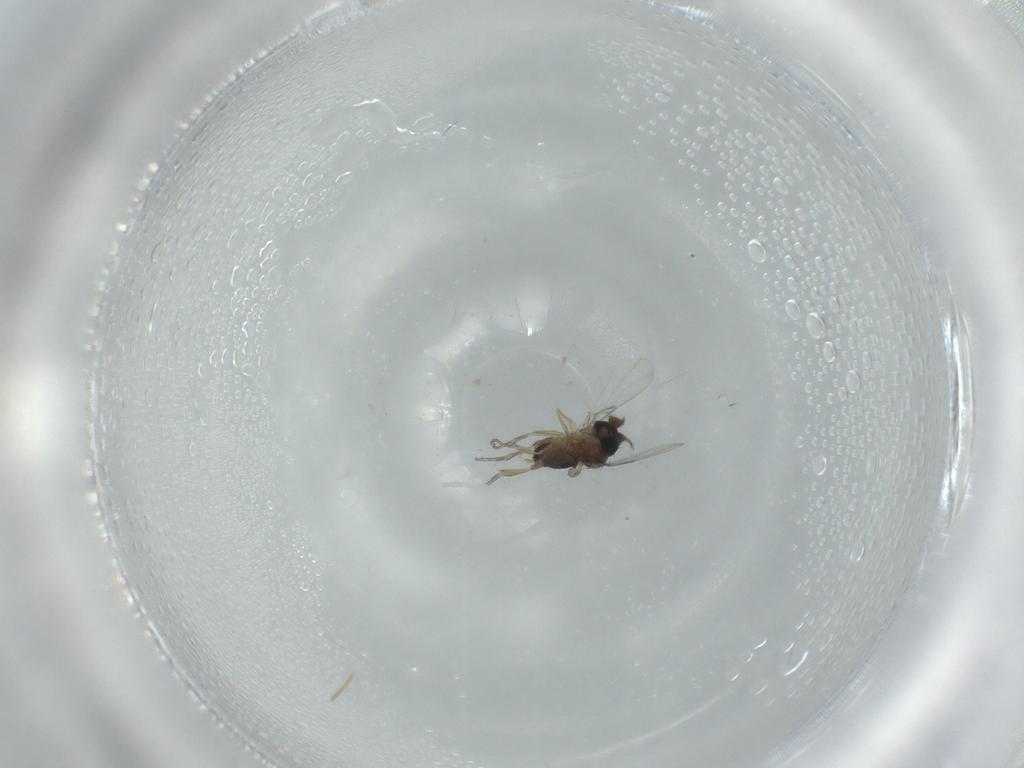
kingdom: Animalia
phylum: Arthropoda
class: Insecta
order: Diptera
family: Phoridae
